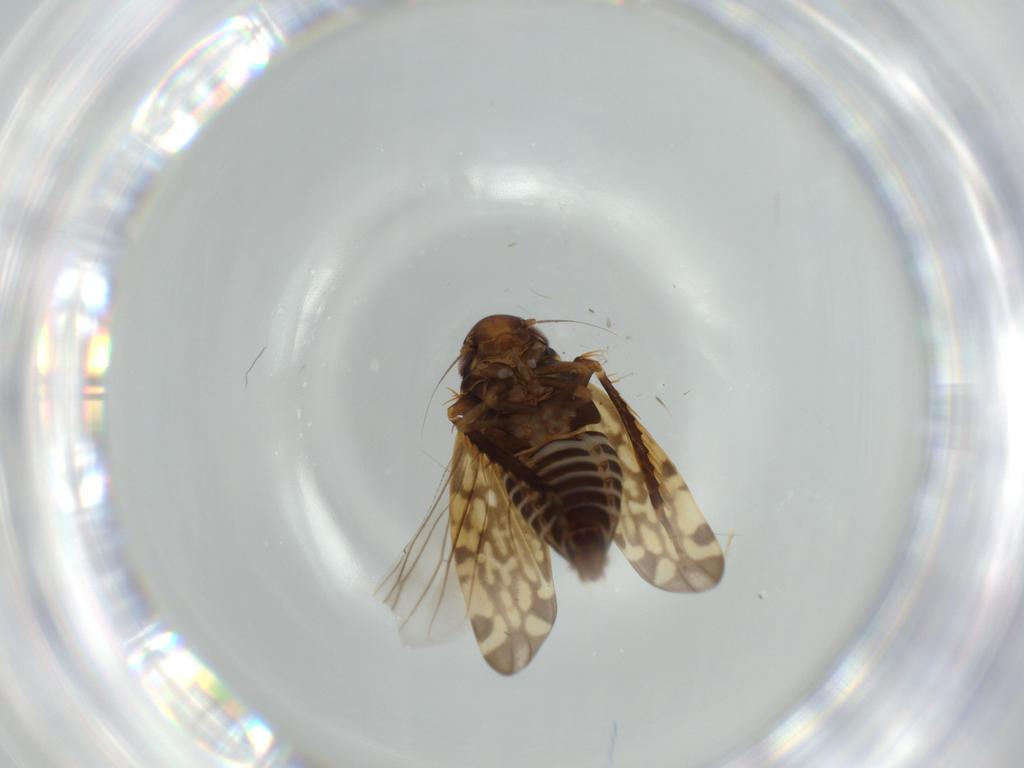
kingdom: Animalia
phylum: Arthropoda
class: Insecta
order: Hemiptera
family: Cicadellidae
